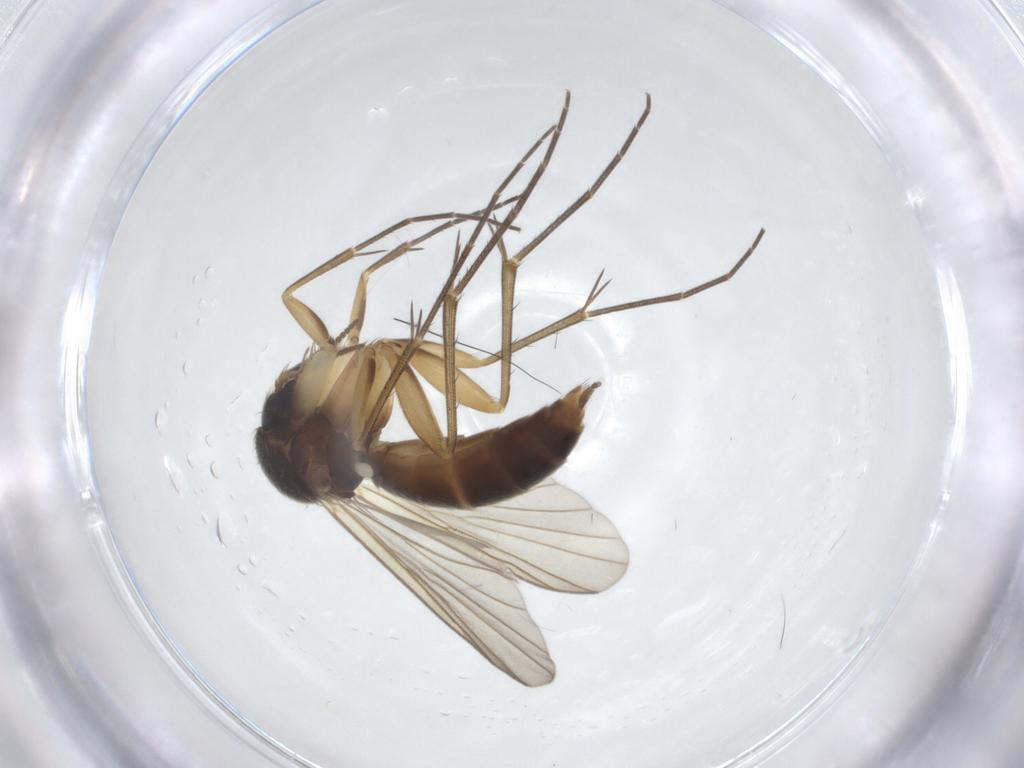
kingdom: Animalia
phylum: Arthropoda
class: Insecta
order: Diptera
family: Mycetophilidae
